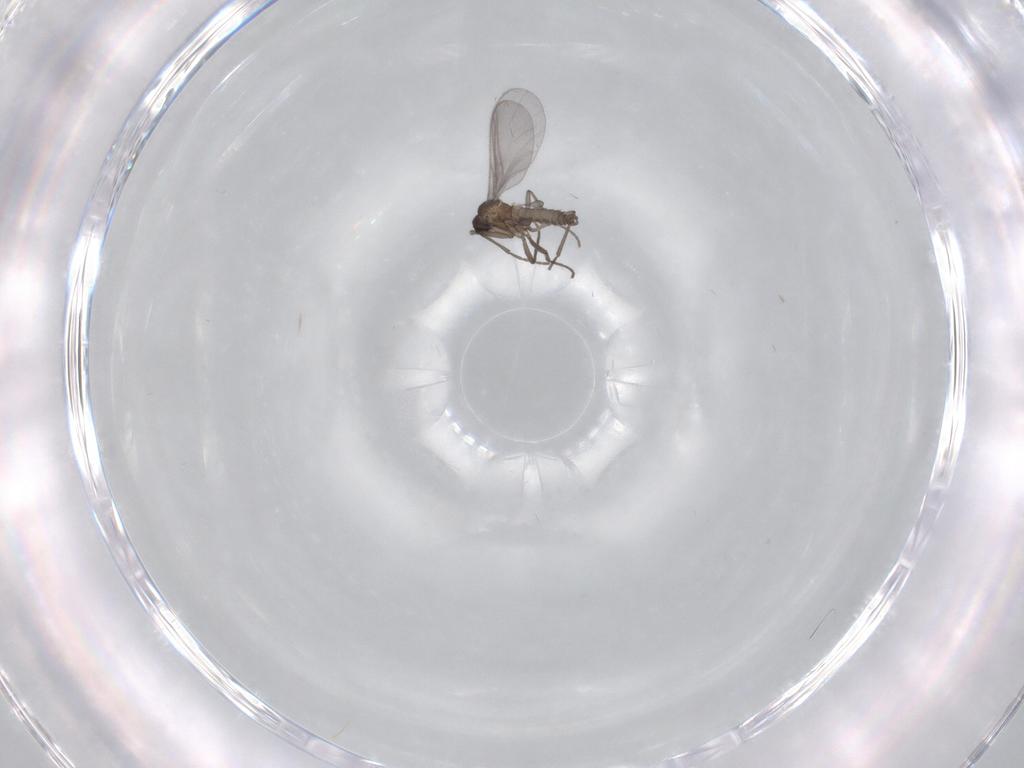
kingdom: Animalia
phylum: Arthropoda
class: Insecta
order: Diptera
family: Sciaridae
